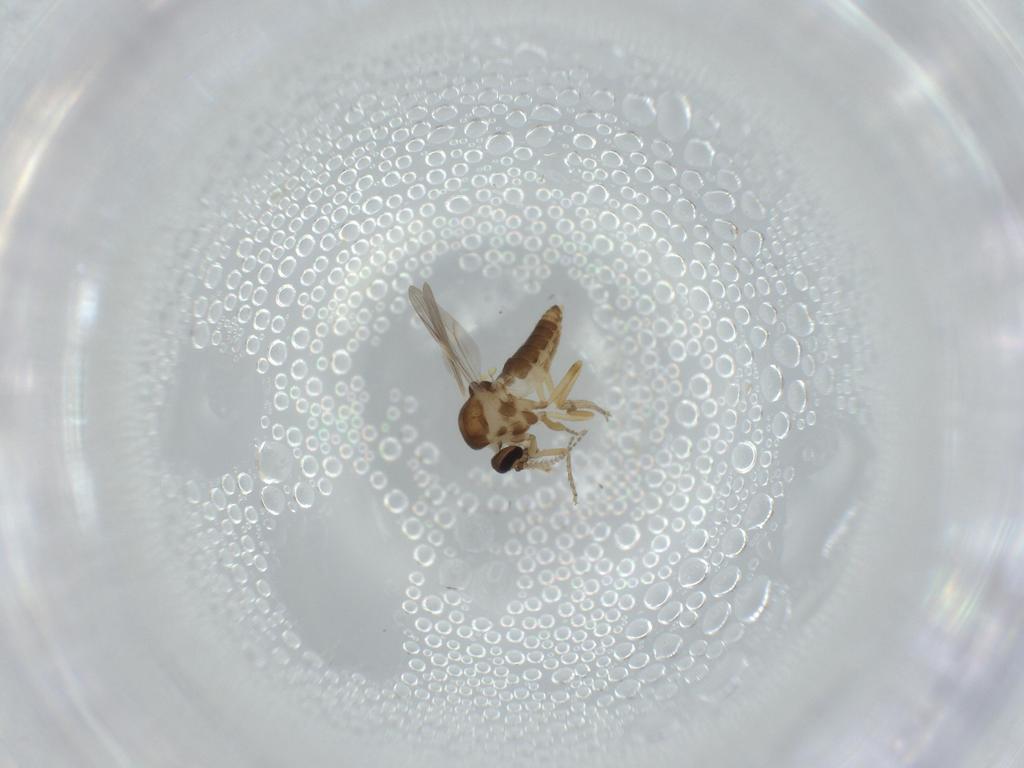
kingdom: Animalia
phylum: Arthropoda
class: Insecta
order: Diptera
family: Ceratopogonidae
